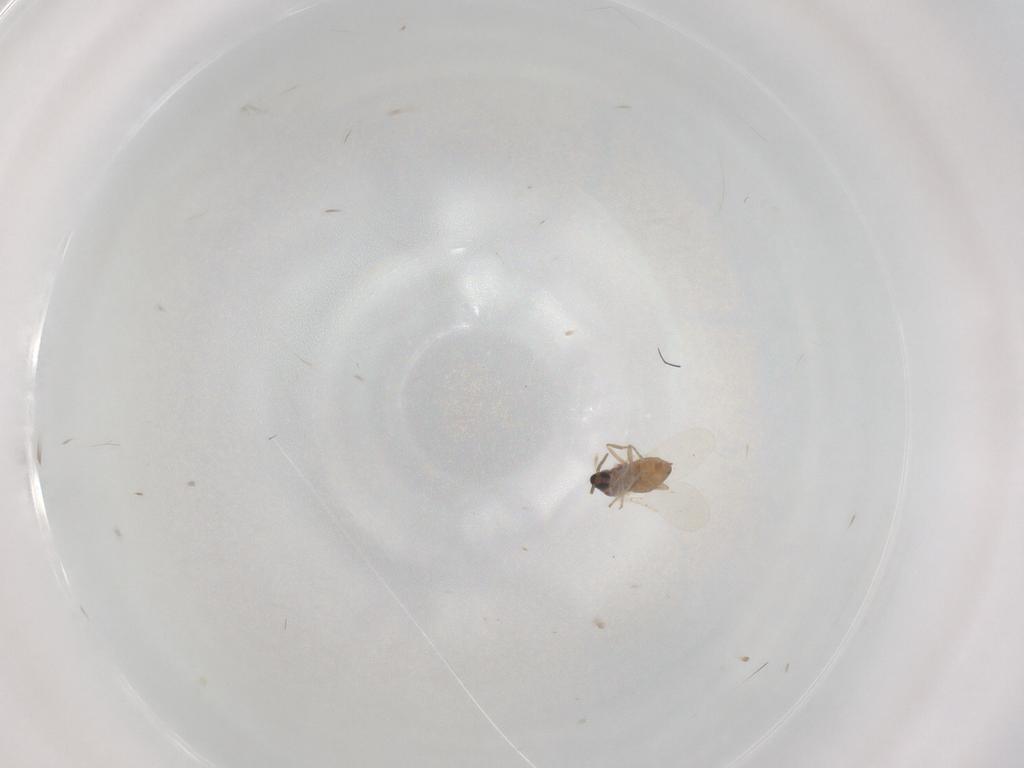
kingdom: Animalia
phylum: Arthropoda
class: Insecta
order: Diptera
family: Cecidomyiidae
